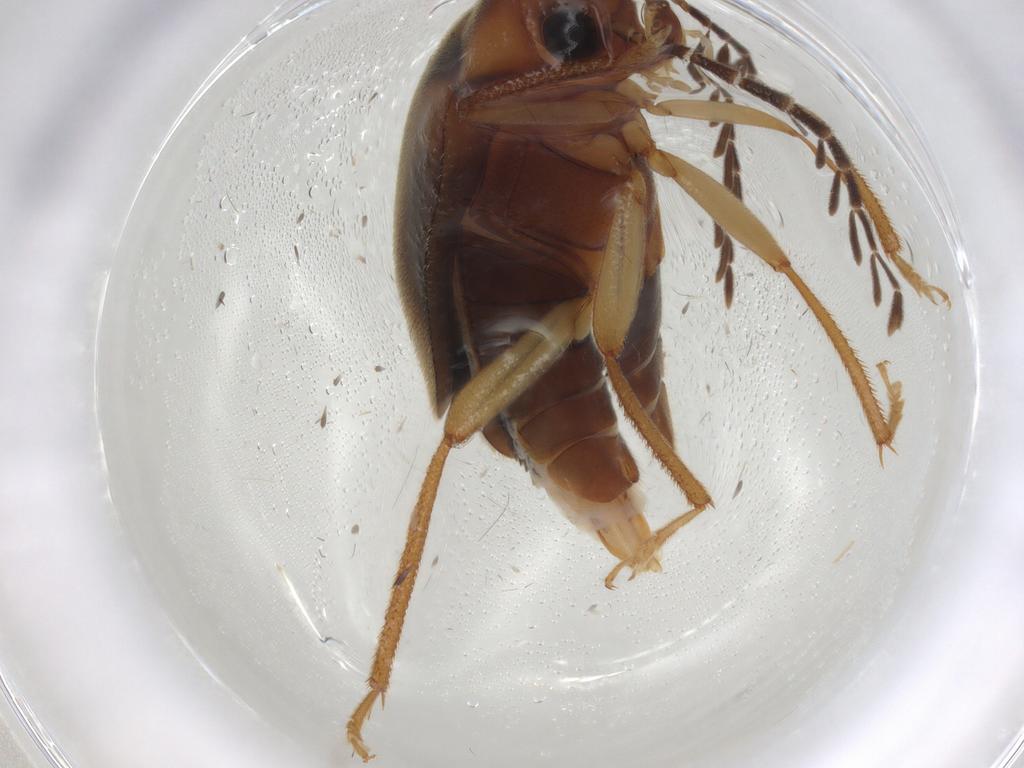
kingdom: Animalia
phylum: Arthropoda
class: Insecta
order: Coleoptera
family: Ptilodactylidae
